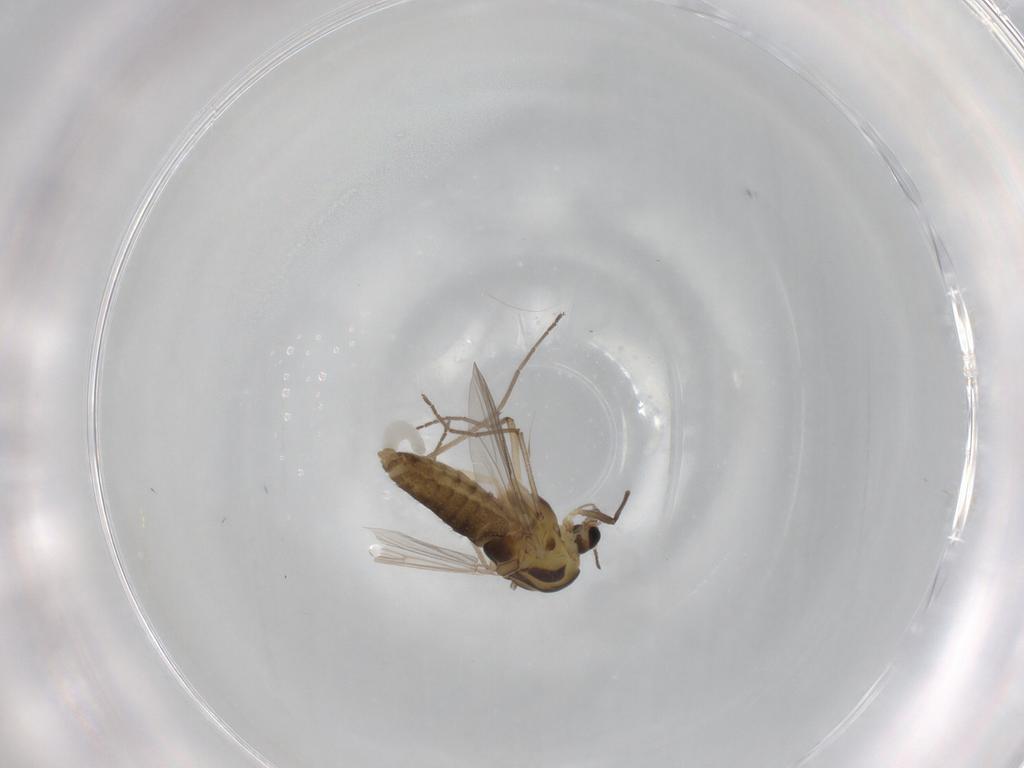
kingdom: Animalia
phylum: Arthropoda
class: Insecta
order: Diptera
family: Chironomidae
